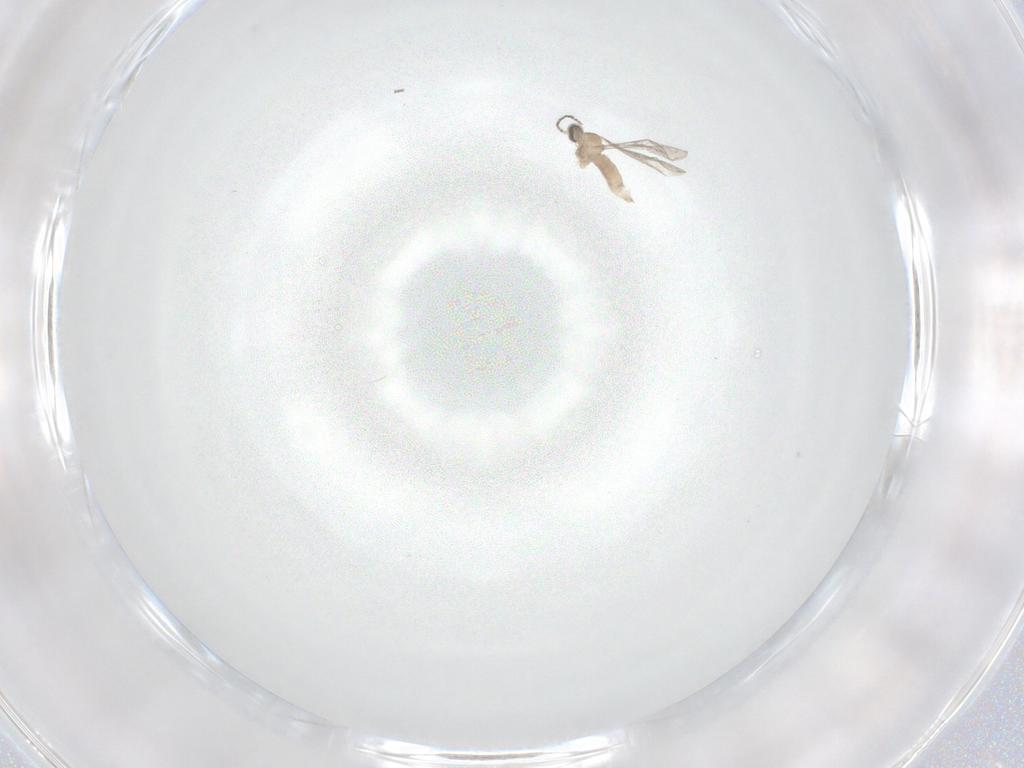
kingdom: Animalia
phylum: Arthropoda
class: Insecta
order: Diptera
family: Cecidomyiidae
